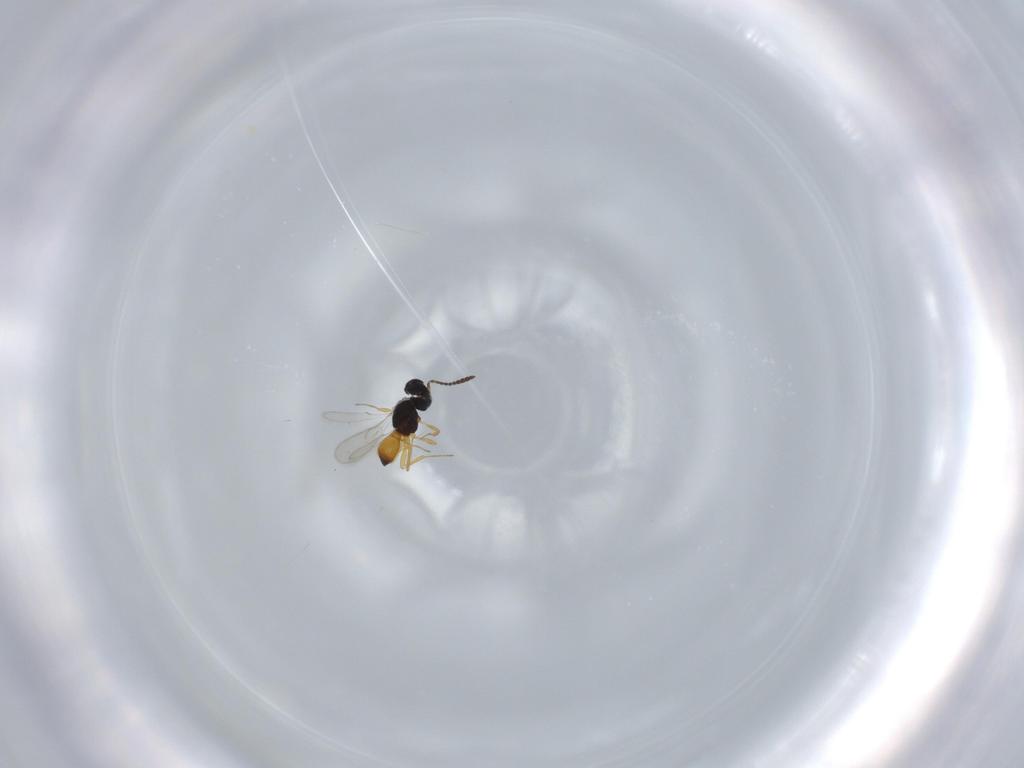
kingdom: Animalia
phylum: Arthropoda
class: Insecta
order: Hymenoptera
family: Scelionidae
